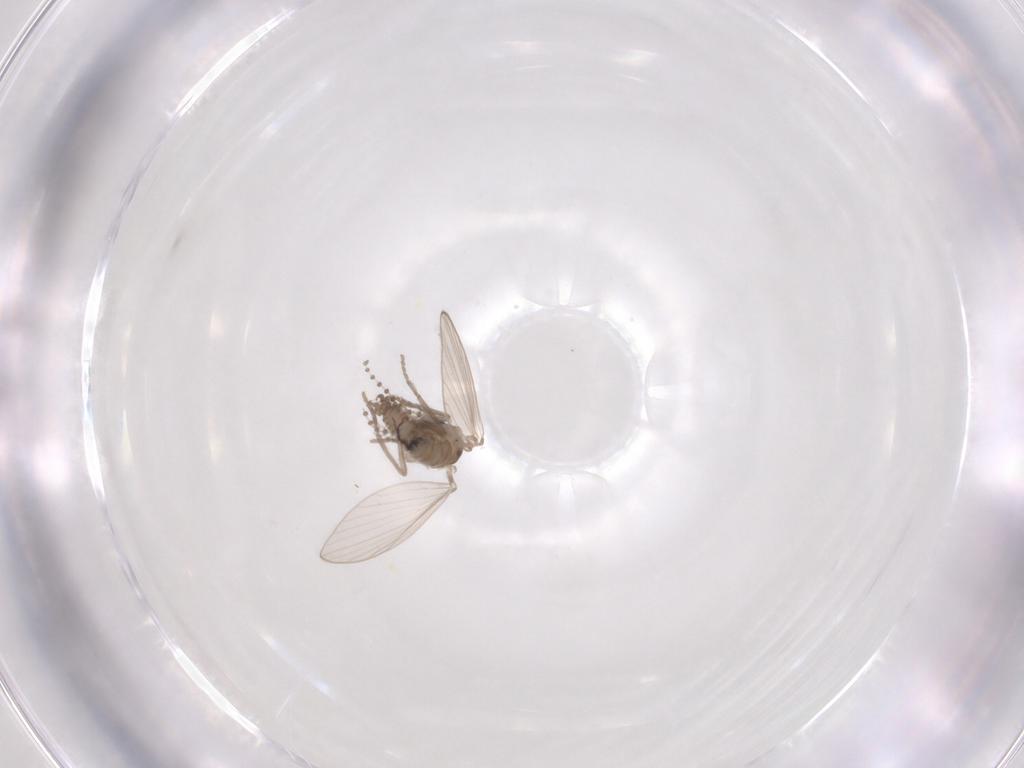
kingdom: Animalia
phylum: Arthropoda
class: Insecta
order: Diptera
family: Psychodidae
